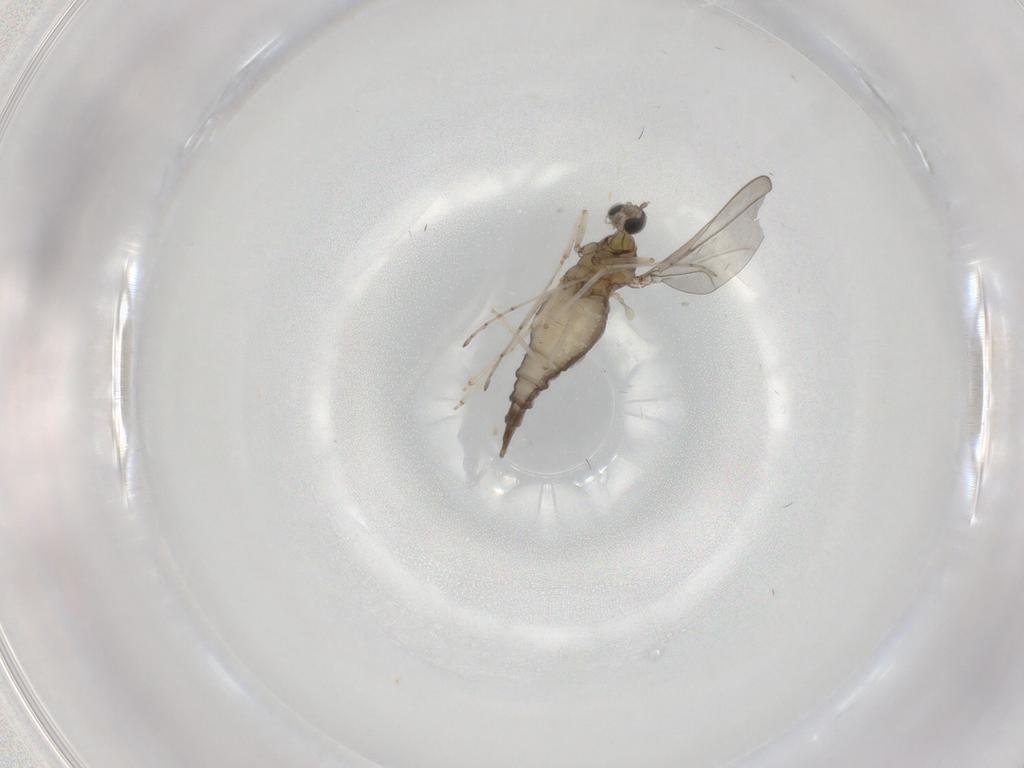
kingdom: Animalia
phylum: Arthropoda
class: Insecta
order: Diptera
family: Cecidomyiidae
